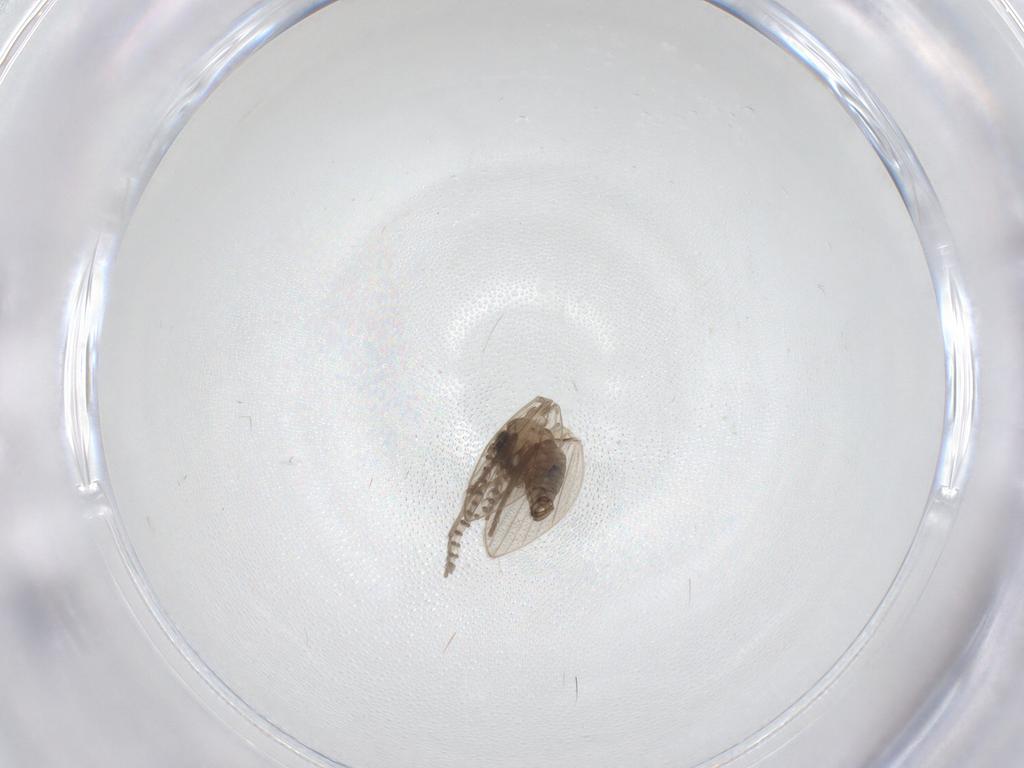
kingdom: Animalia
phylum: Arthropoda
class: Insecta
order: Diptera
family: Psychodidae
